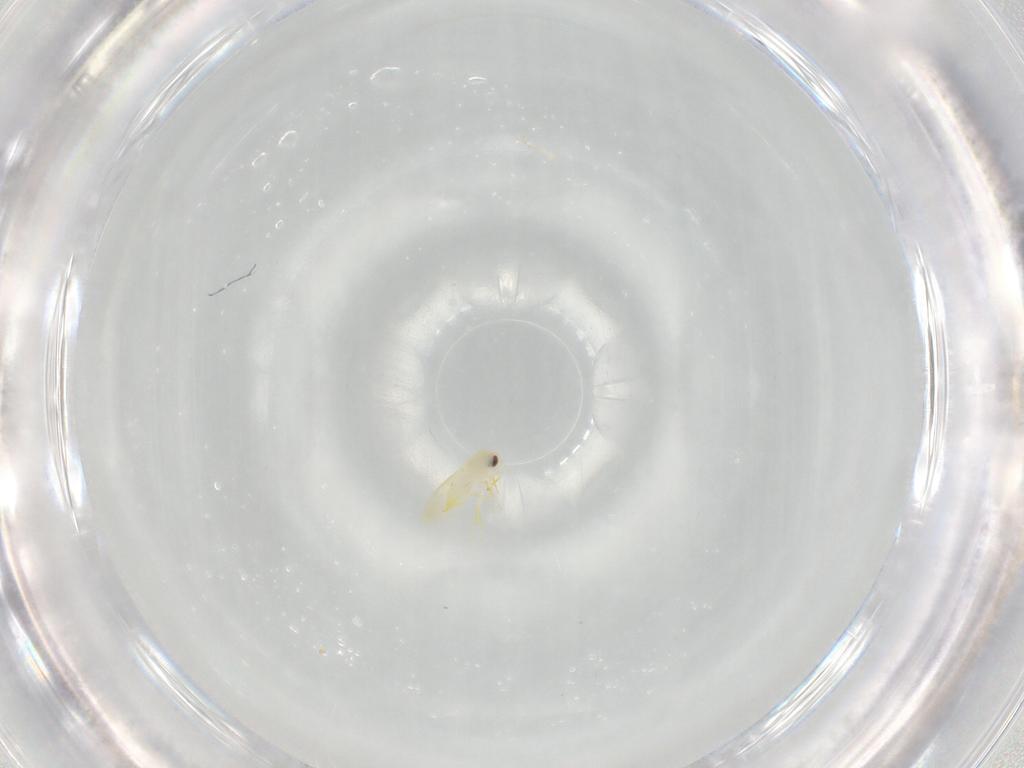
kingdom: Animalia
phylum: Arthropoda
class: Insecta
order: Hemiptera
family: Aleyrodidae
